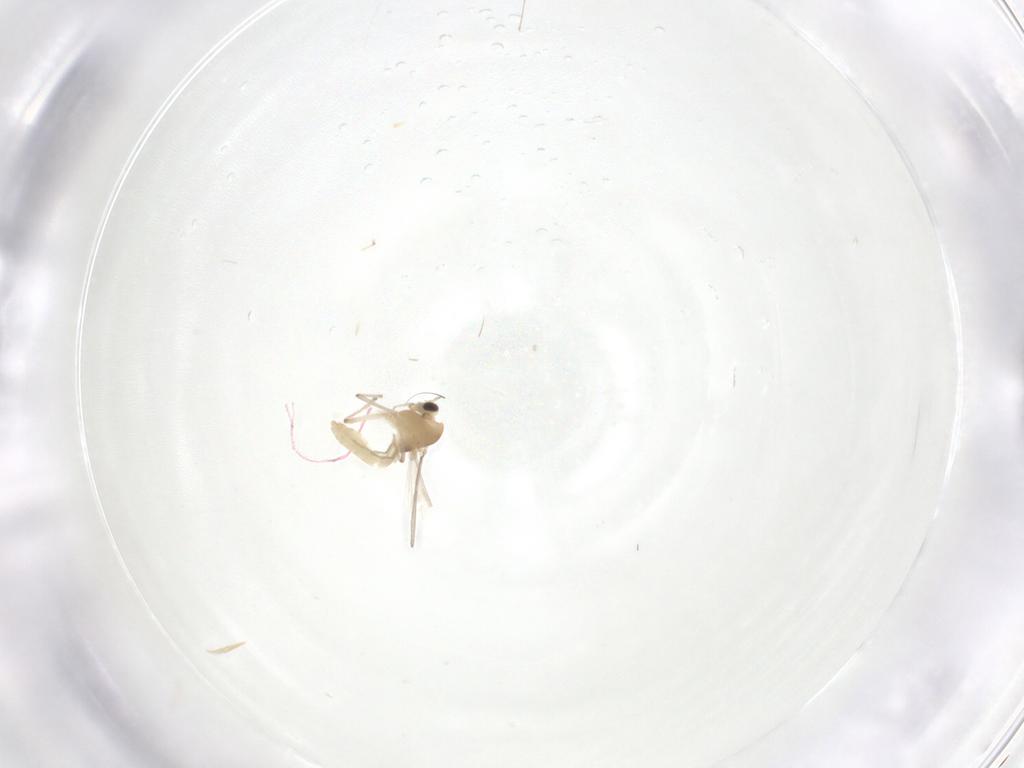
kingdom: Animalia
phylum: Arthropoda
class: Insecta
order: Diptera
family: Chironomidae
